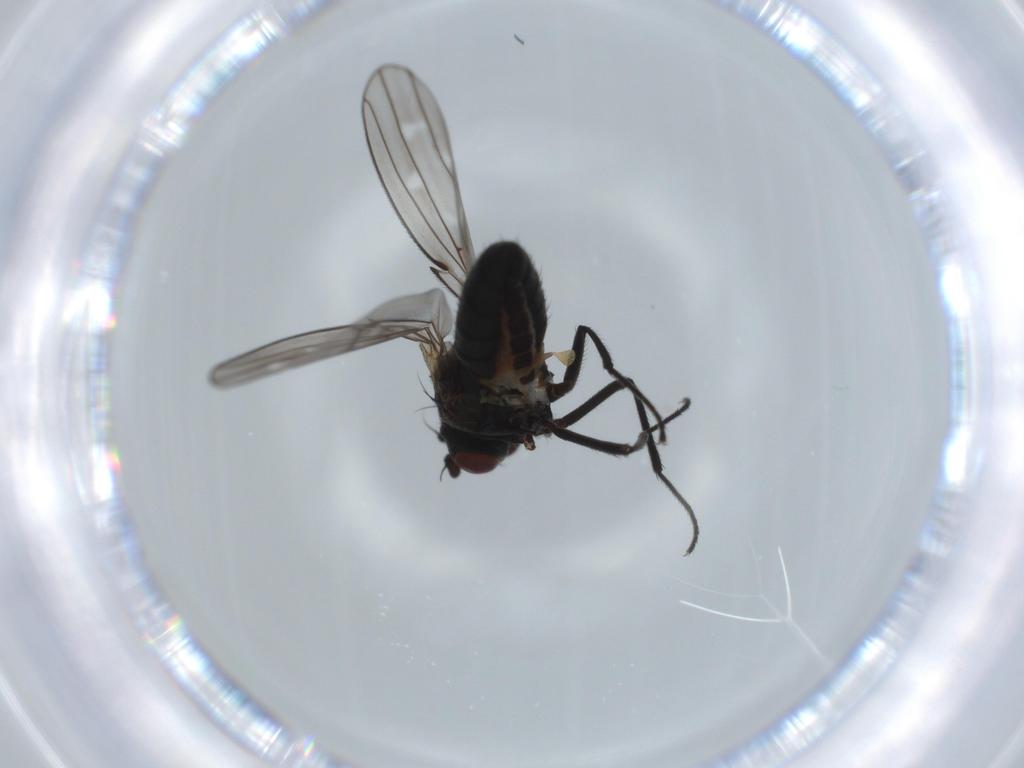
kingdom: Animalia
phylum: Arthropoda
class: Insecta
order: Diptera
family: Ephydridae
